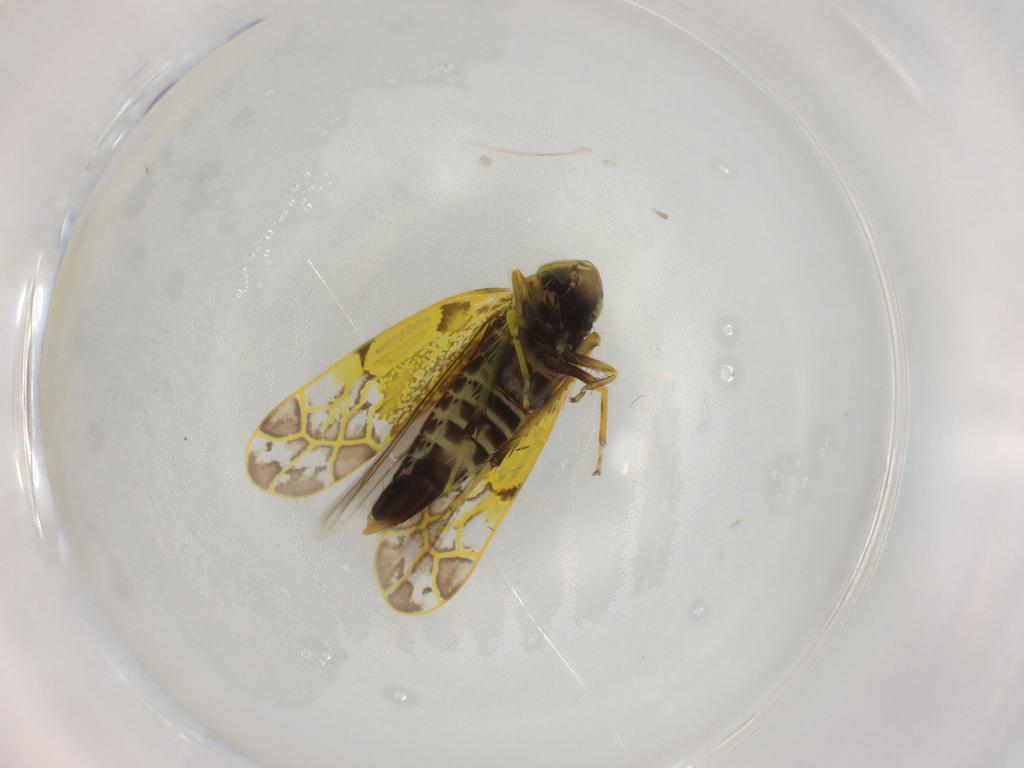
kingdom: Animalia
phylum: Arthropoda
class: Insecta
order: Hemiptera
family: Cicadellidae
